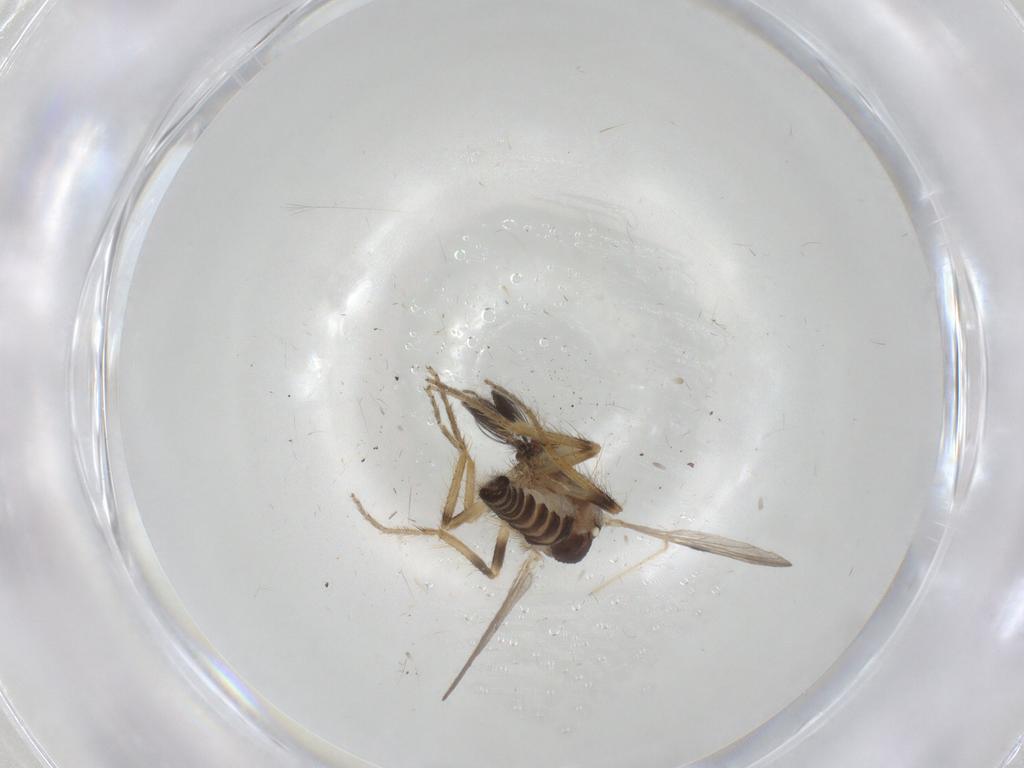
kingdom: Animalia
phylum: Arthropoda
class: Insecta
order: Diptera
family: Ceratopogonidae
